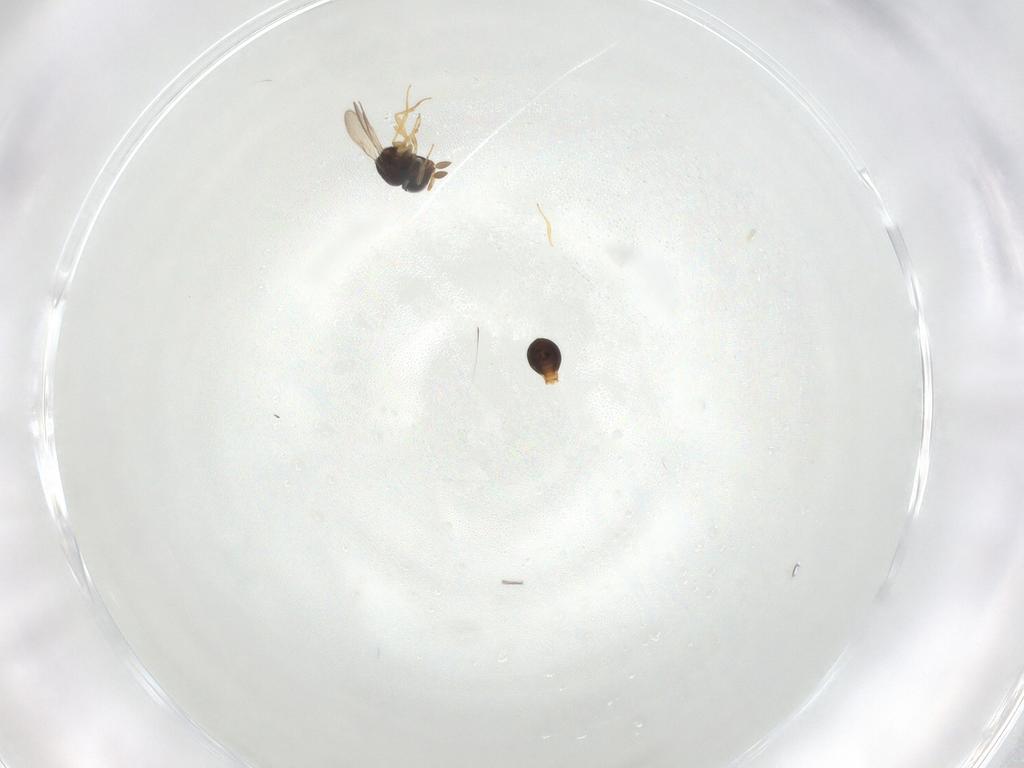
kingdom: Animalia
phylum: Arthropoda
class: Insecta
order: Hymenoptera
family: Scelionidae
